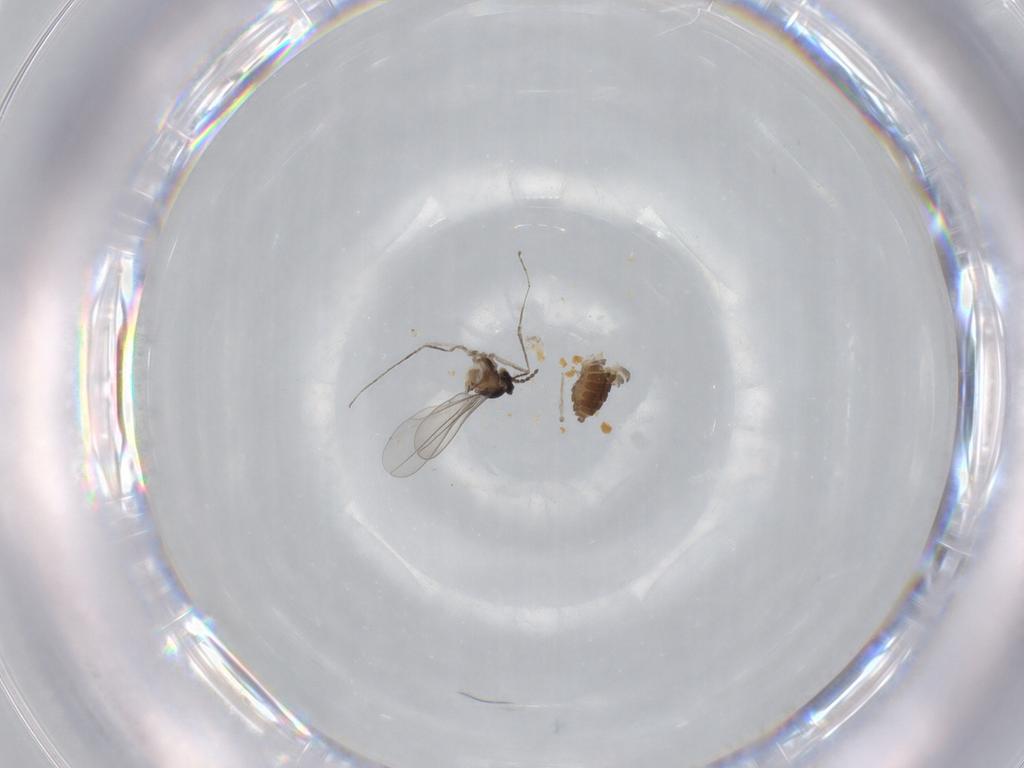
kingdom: Animalia
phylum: Arthropoda
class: Insecta
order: Diptera
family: Cecidomyiidae
